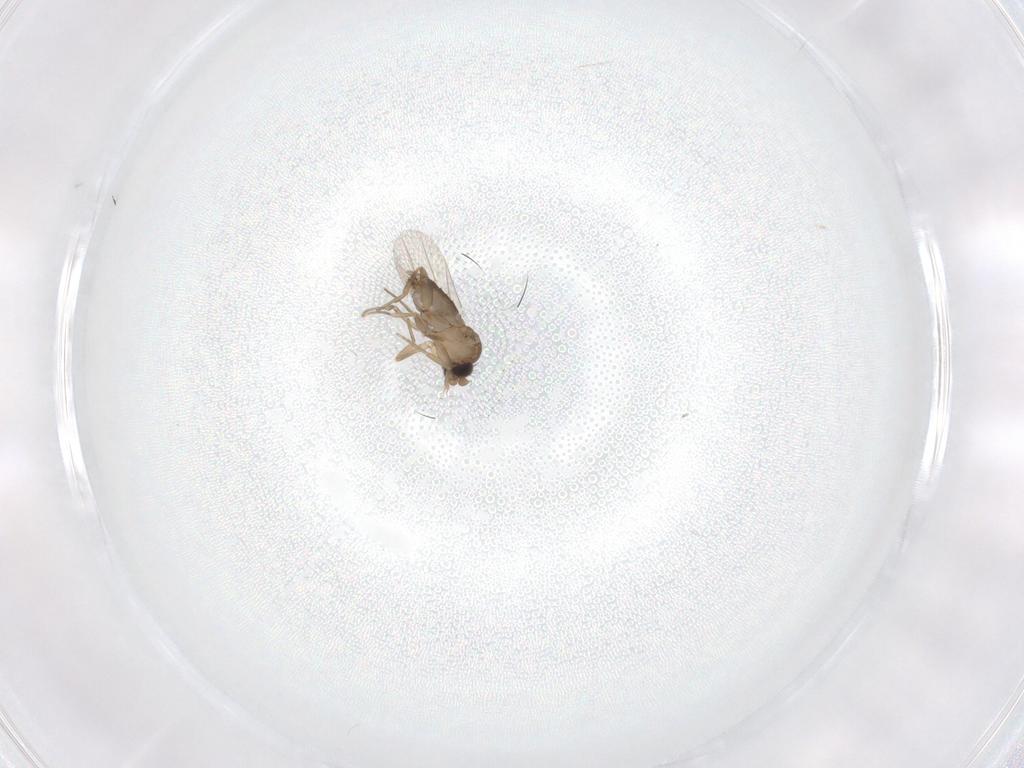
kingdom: Animalia
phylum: Arthropoda
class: Insecta
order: Diptera
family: Phoridae
